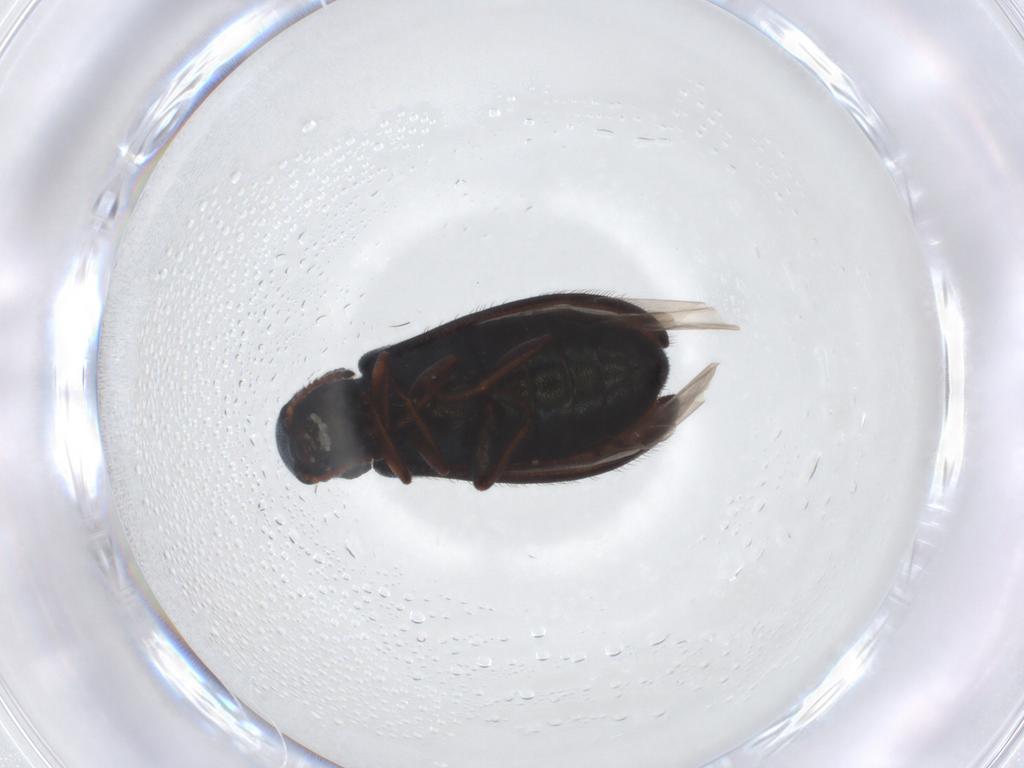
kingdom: Animalia
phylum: Arthropoda
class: Insecta
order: Coleoptera
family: Melyridae
